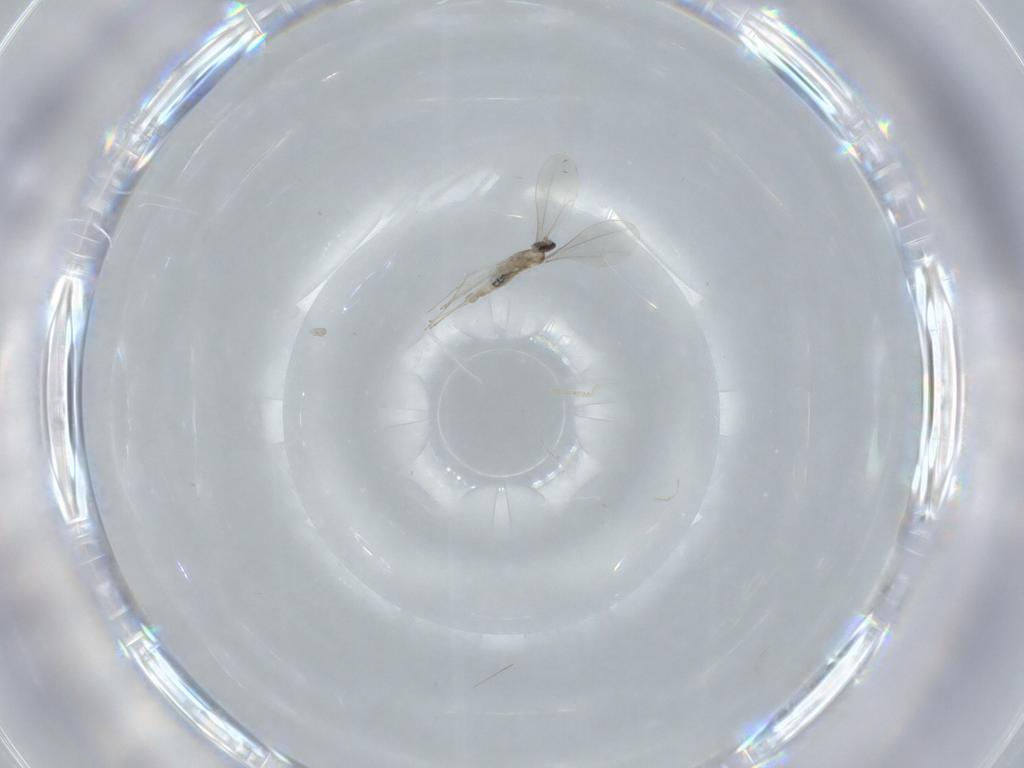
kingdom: Animalia
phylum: Arthropoda
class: Insecta
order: Diptera
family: Cecidomyiidae
